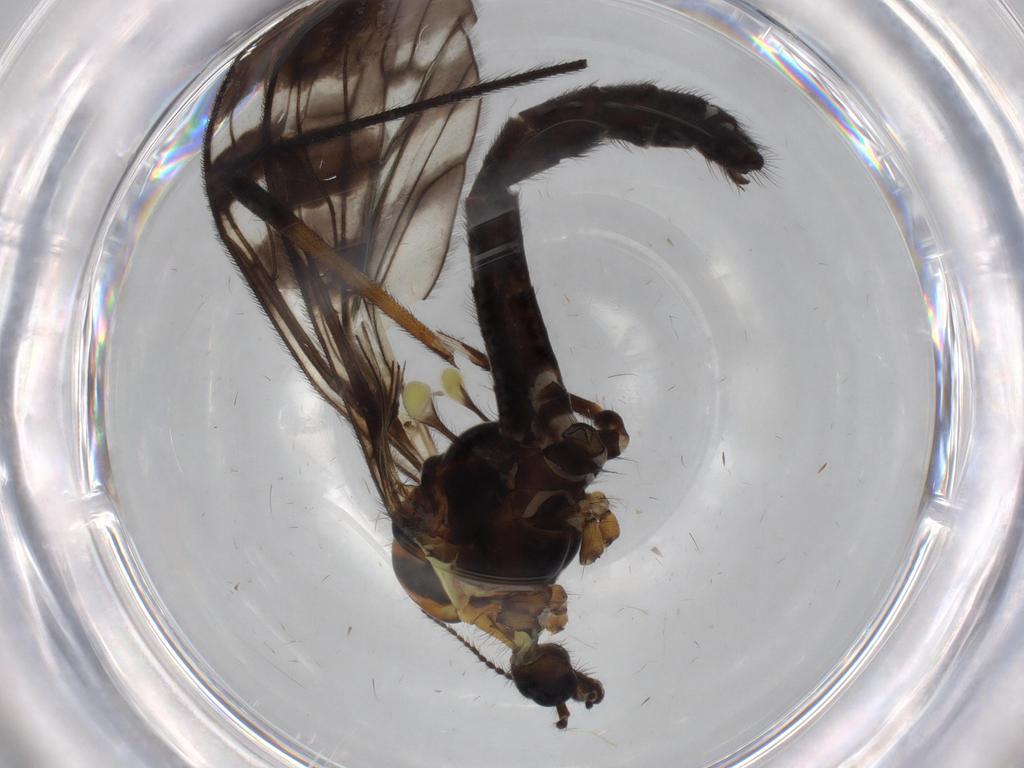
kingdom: Animalia
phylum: Arthropoda
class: Insecta
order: Diptera
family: Limoniidae
